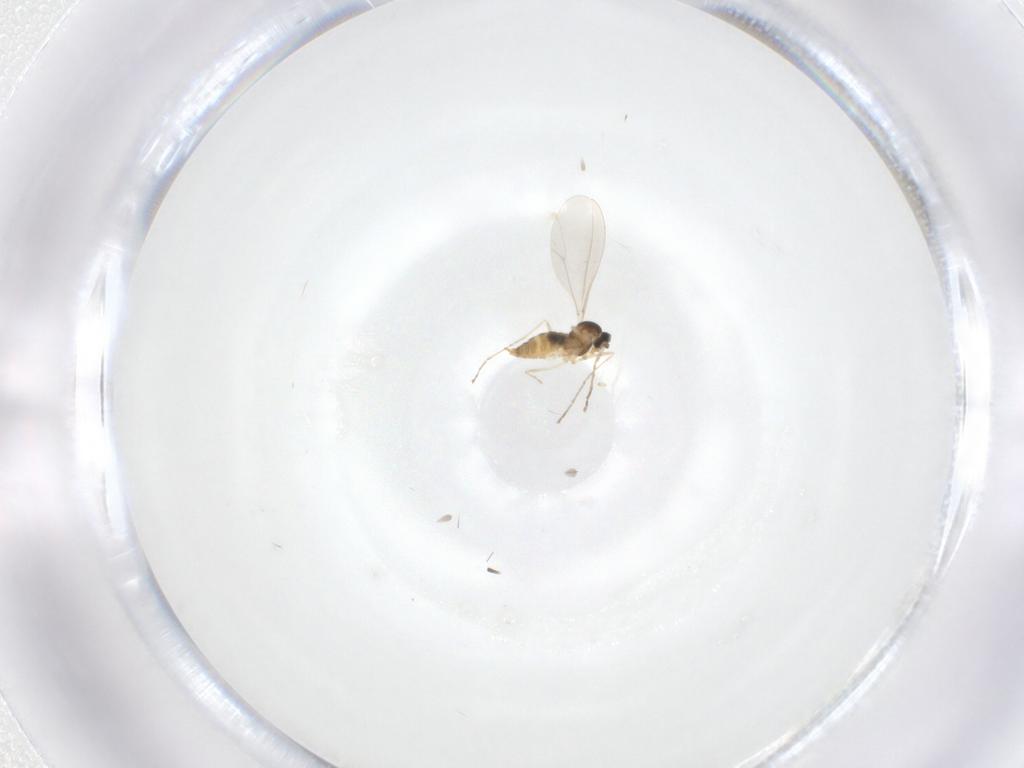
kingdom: Animalia
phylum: Arthropoda
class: Insecta
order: Diptera
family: Cecidomyiidae
